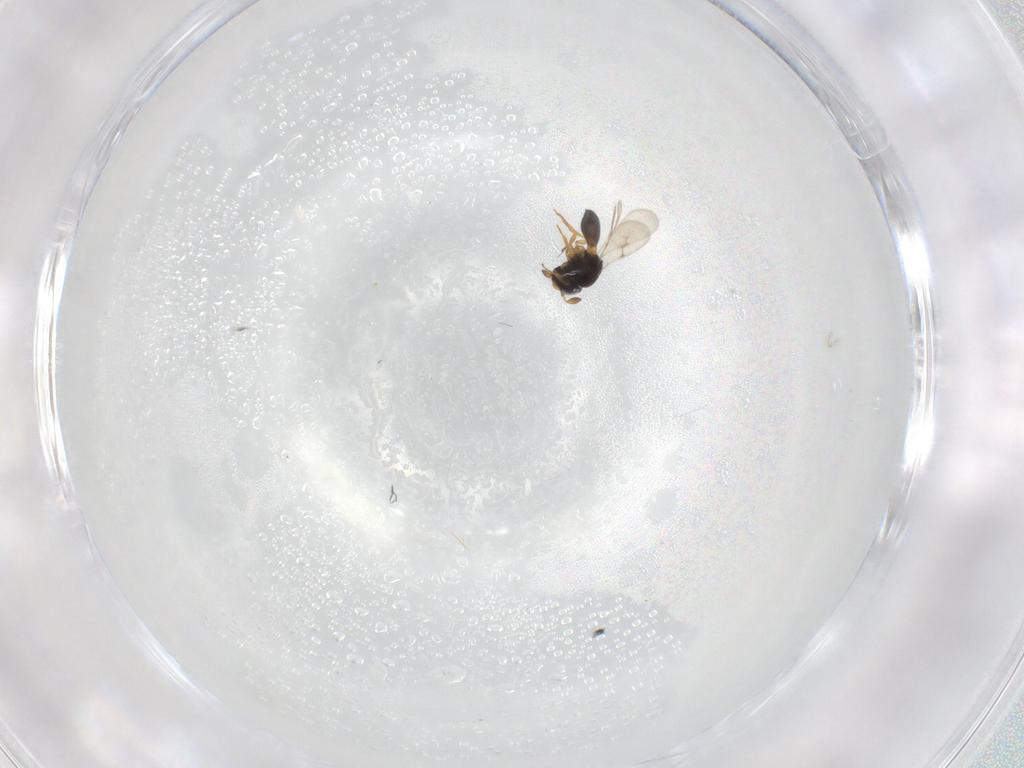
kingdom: Animalia
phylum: Arthropoda
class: Insecta
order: Hymenoptera
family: Scelionidae
